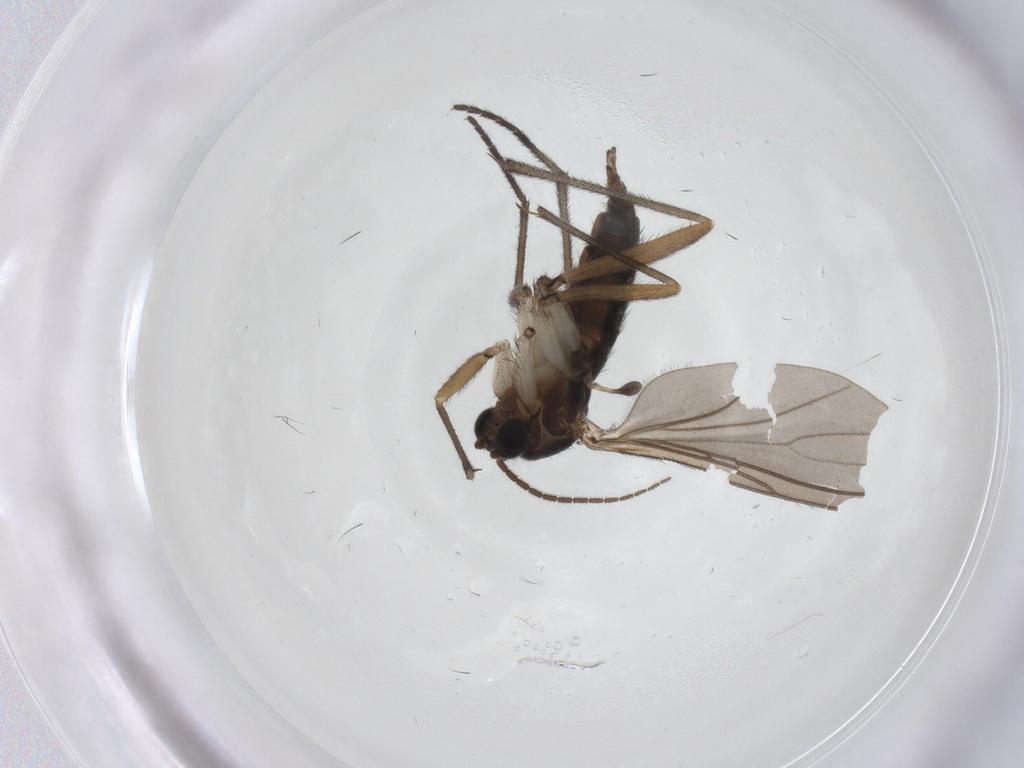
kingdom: Animalia
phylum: Arthropoda
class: Insecta
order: Diptera
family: Sciaridae
